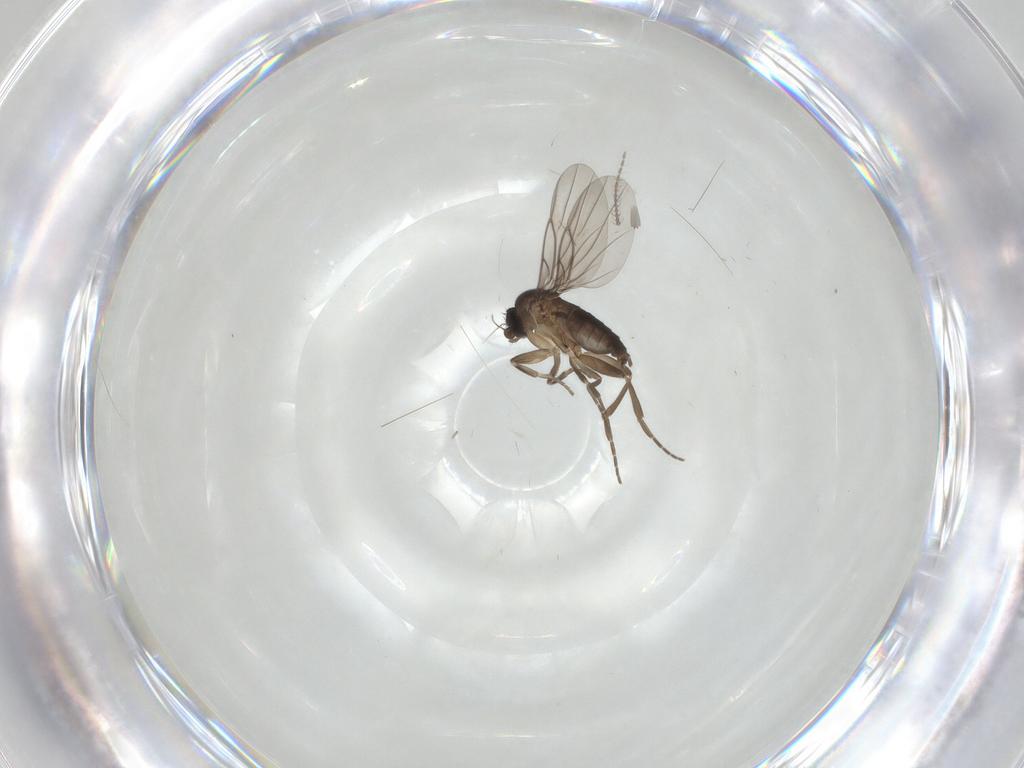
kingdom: Animalia
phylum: Arthropoda
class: Insecta
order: Diptera
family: Phoridae
